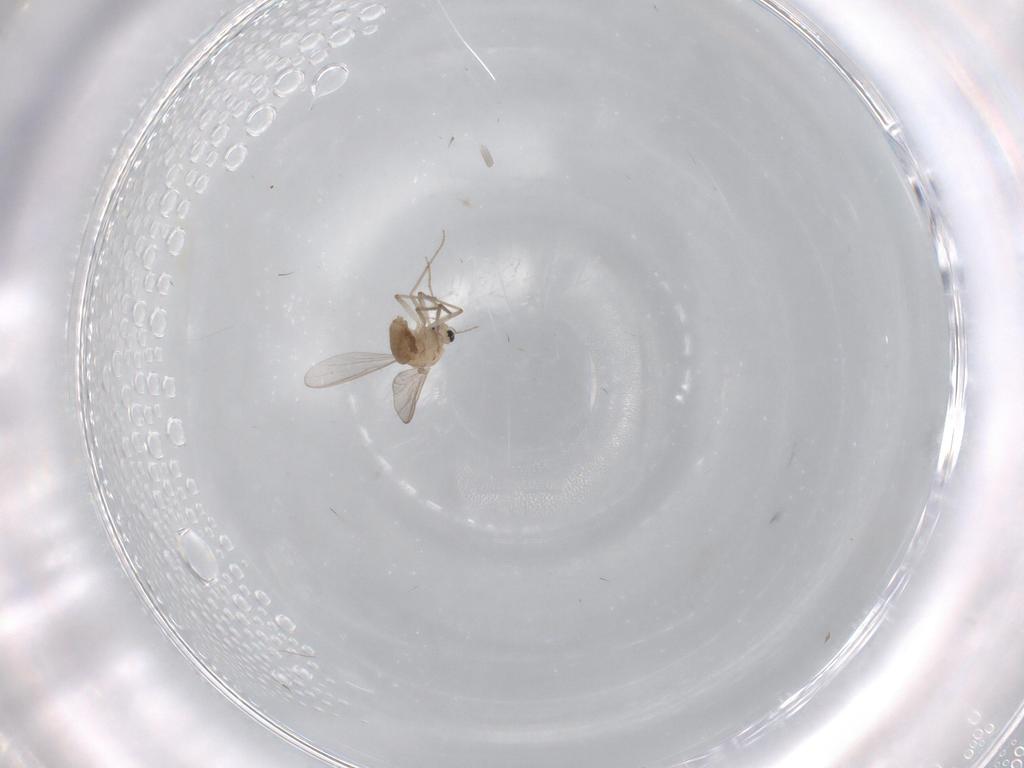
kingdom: Animalia
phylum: Arthropoda
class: Insecta
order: Diptera
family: Chironomidae
